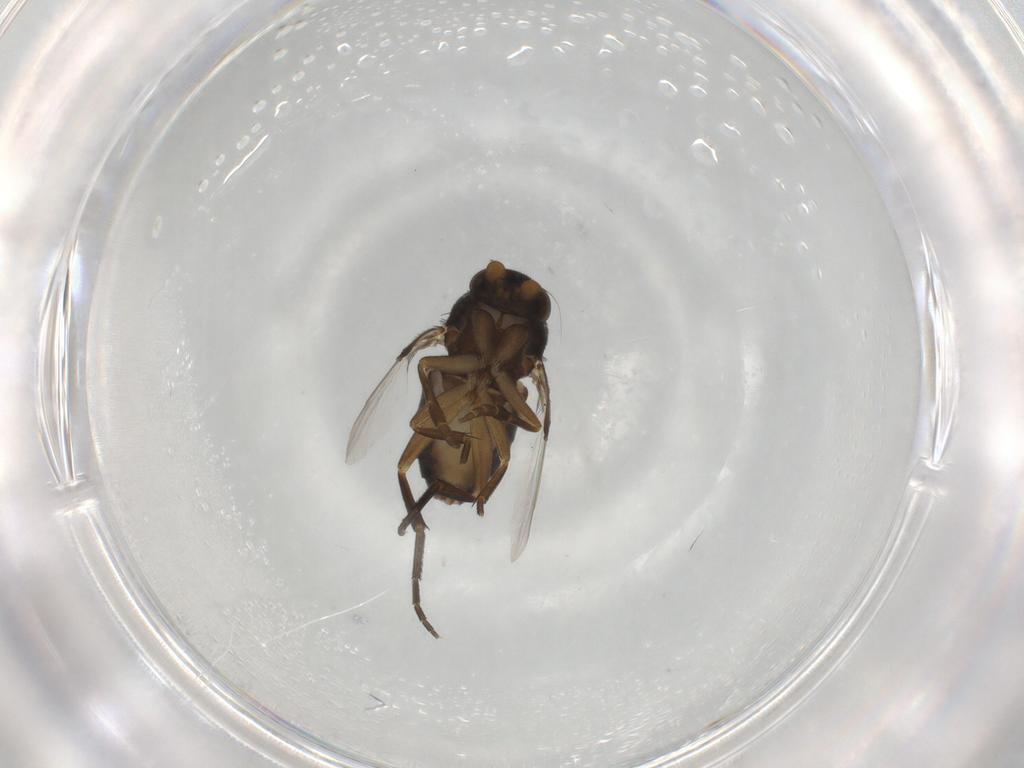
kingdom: Animalia
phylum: Arthropoda
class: Insecta
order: Diptera
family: Phoridae
